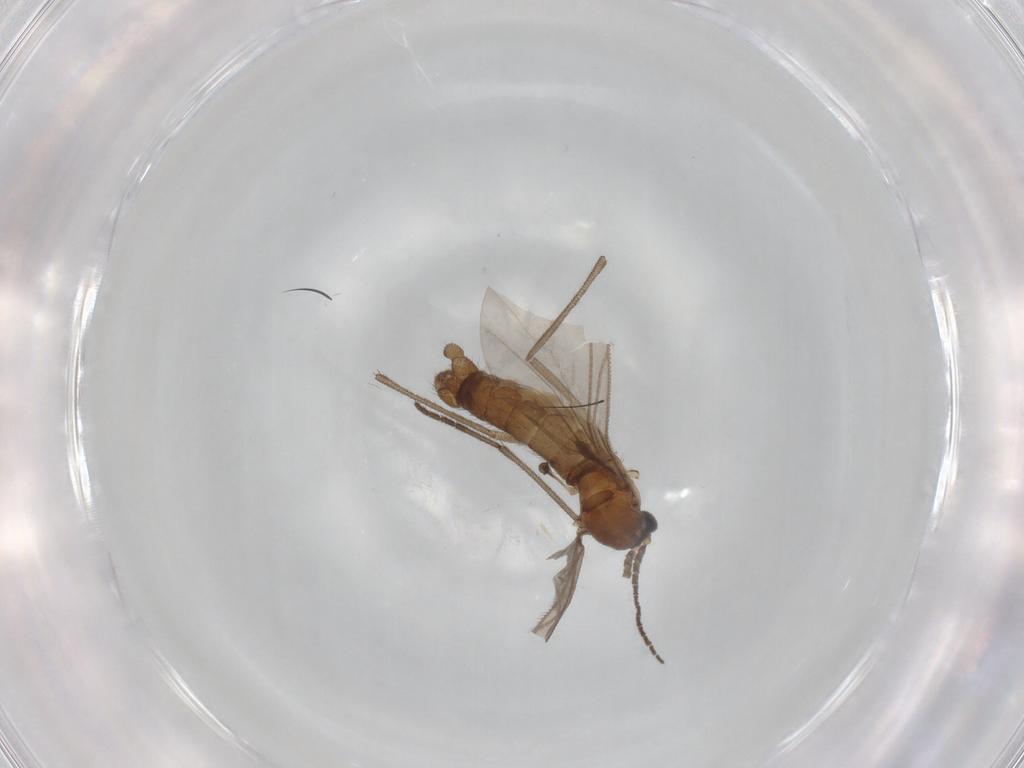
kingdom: Animalia
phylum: Arthropoda
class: Insecta
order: Diptera
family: Sciaridae
